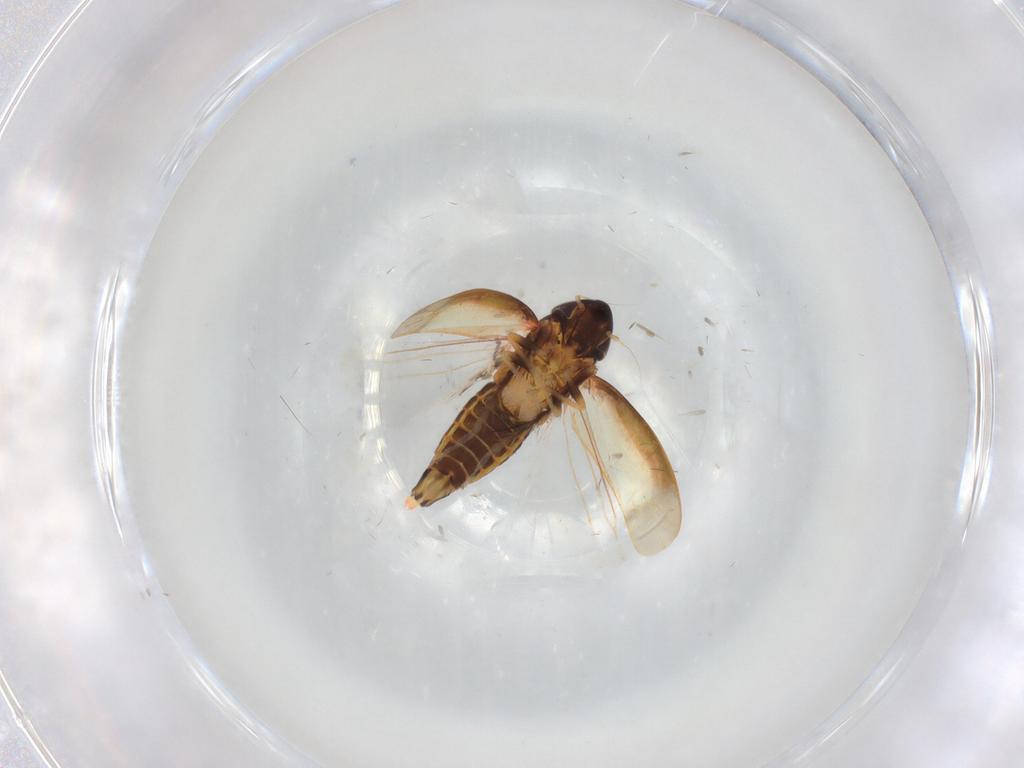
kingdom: Animalia
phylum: Arthropoda
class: Insecta
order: Hemiptera
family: Cicadellidae
